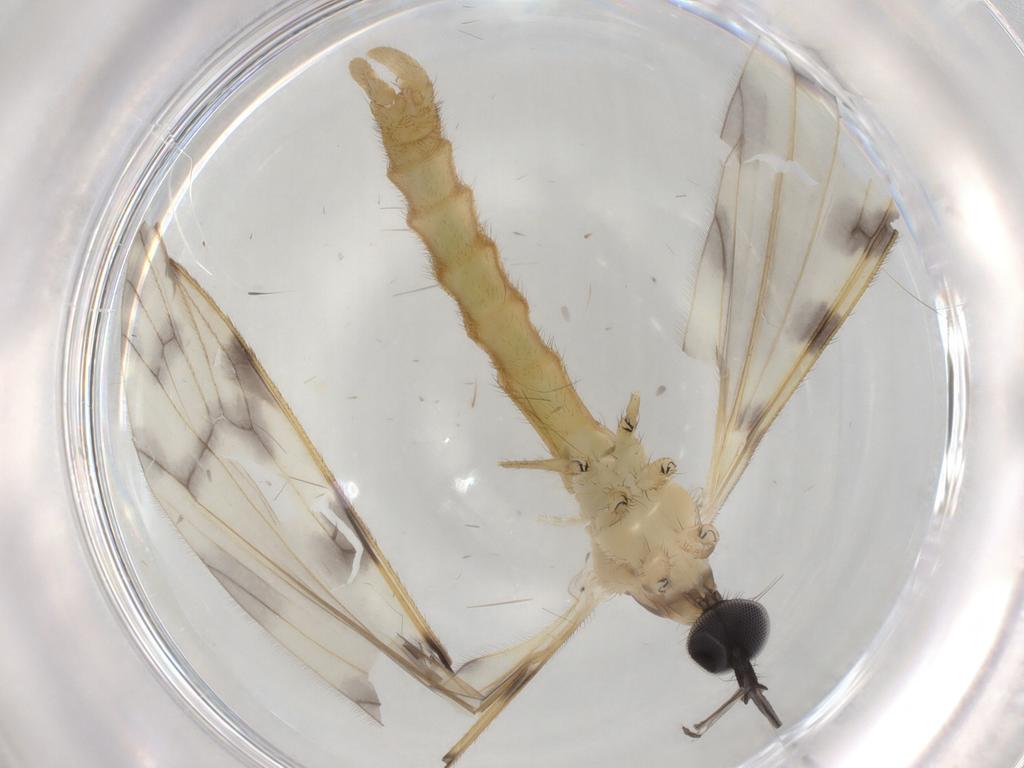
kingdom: Animalia
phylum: Arthropoda
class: Insecta
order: Diptera
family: Limoniidae
